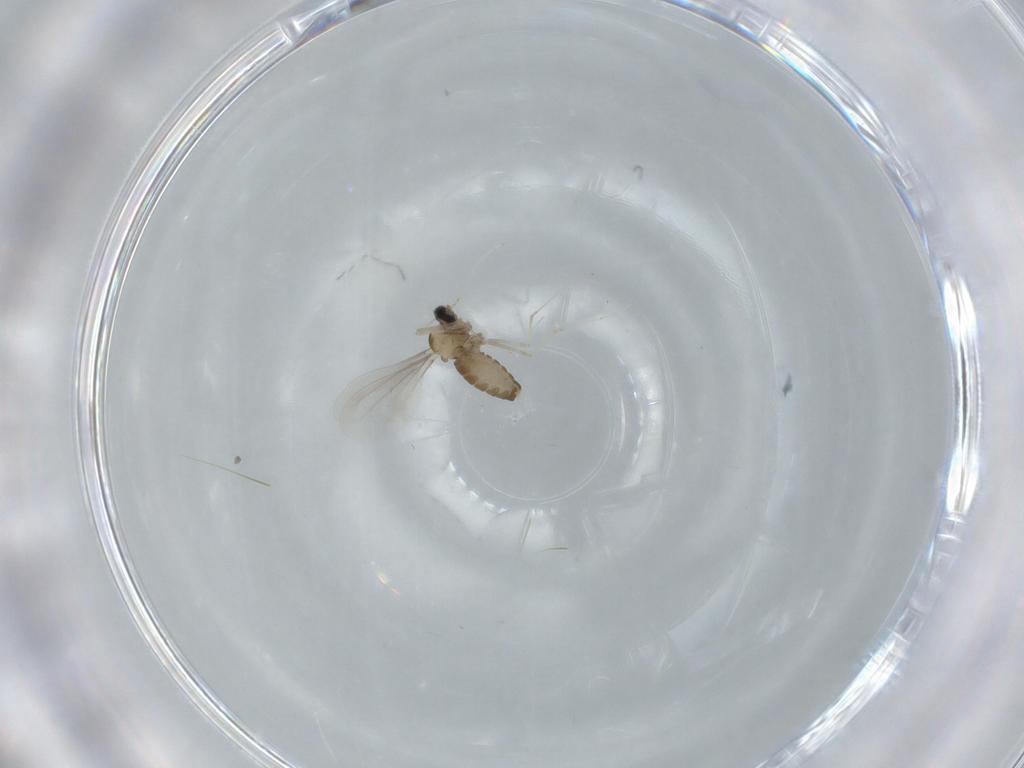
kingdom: Animalia
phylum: Arthropoda
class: Insecta
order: Diptera
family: Cecidomyiidae
